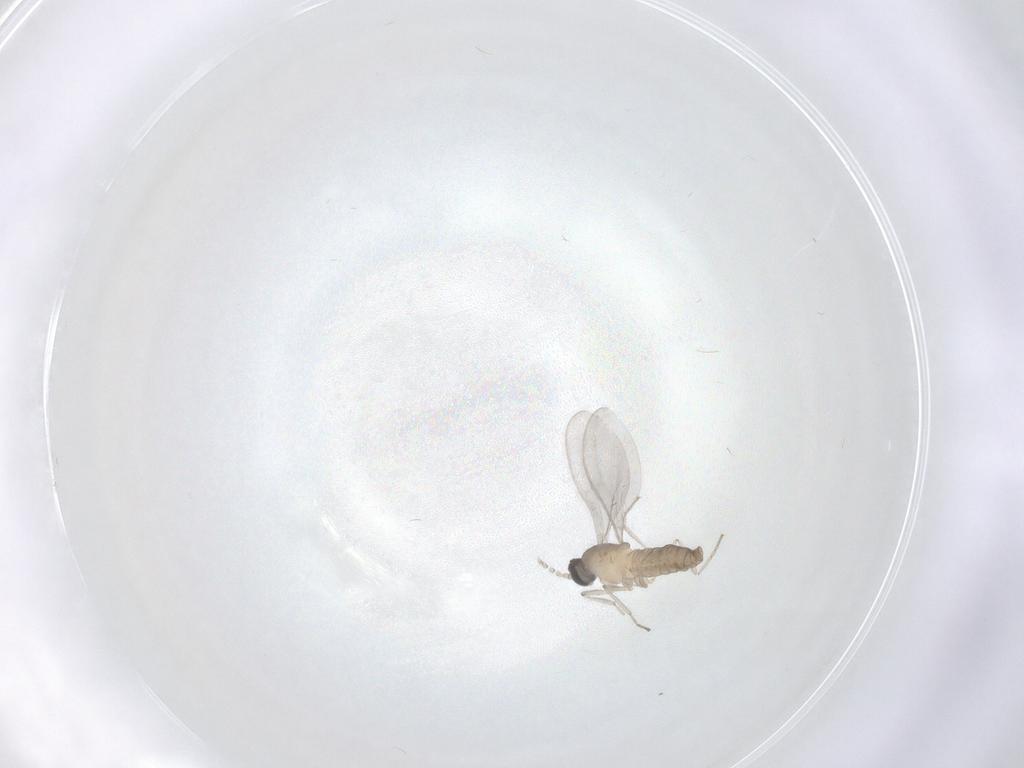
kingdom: Animalia
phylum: Arthropoda
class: Insecta
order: Diptera
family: Cecidomyiidae
